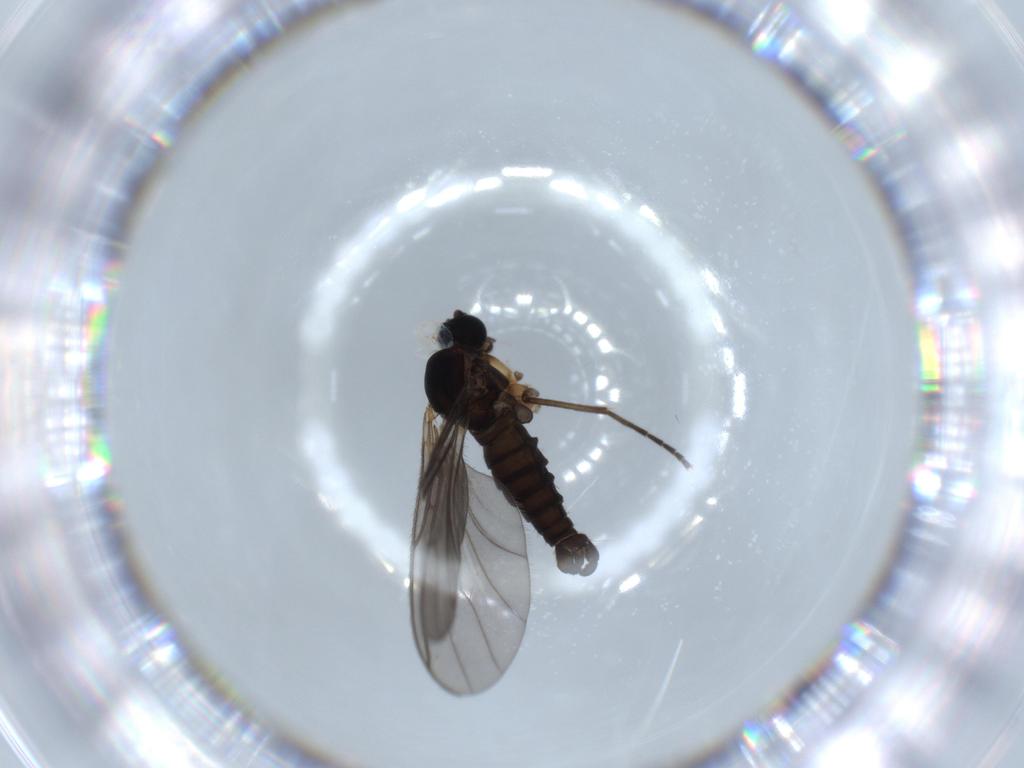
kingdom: Animalia
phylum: Arthropoda
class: Insecta
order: Diptera
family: Sciaridae
